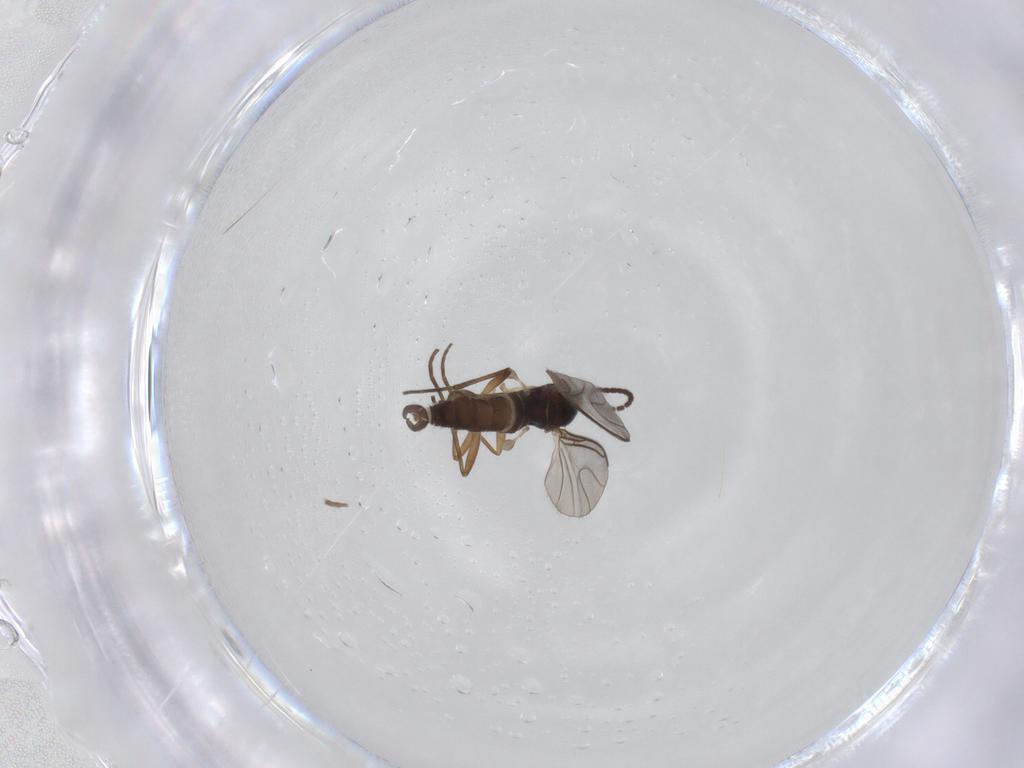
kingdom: Animalia
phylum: Arthropoda
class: Insecta
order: Diptera
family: Sciaridae
